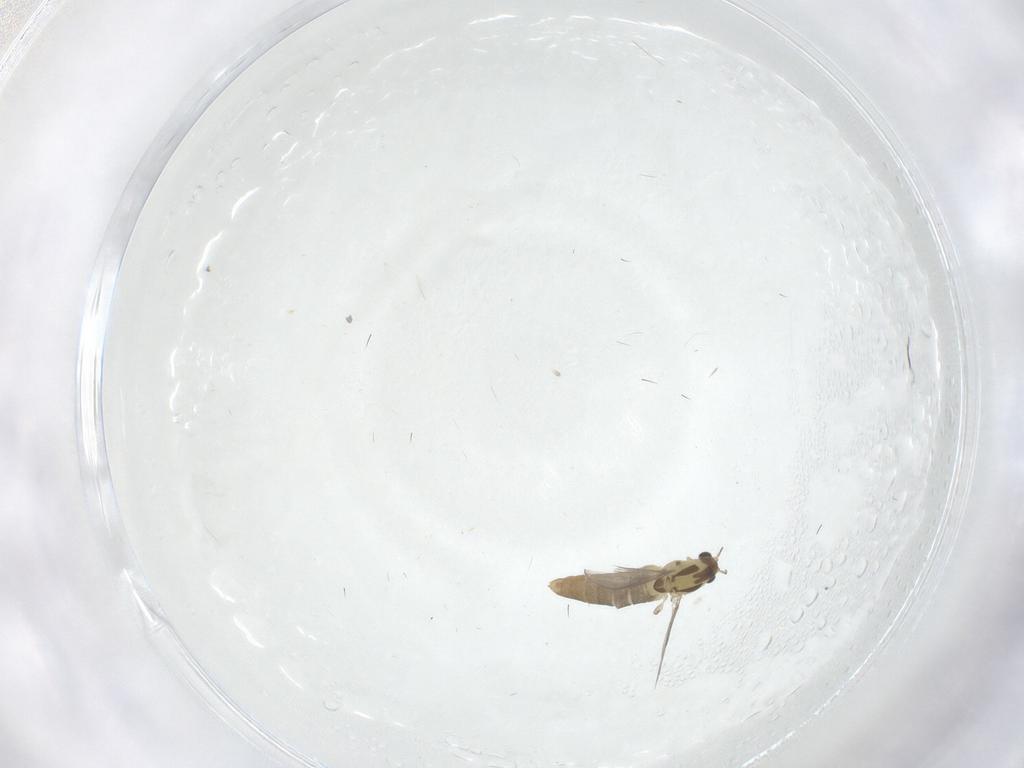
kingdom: Animalia
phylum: Arthropoda
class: Insecta
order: Diptera
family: Cecidomyiidae
